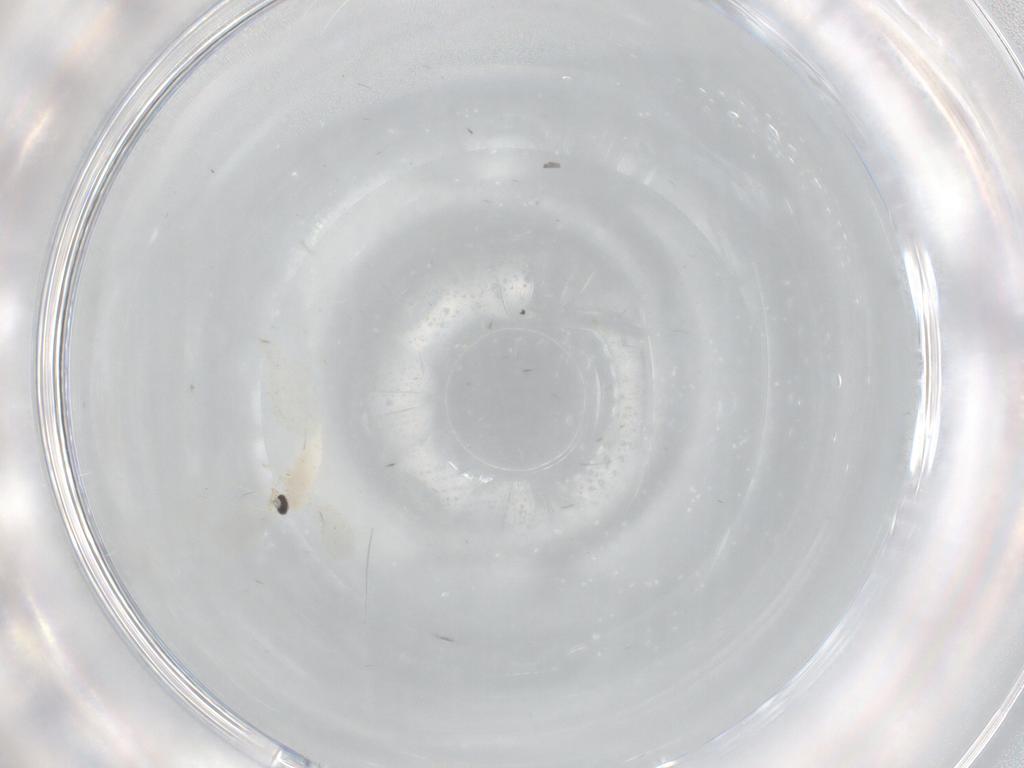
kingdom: Animalia
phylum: Arthropoda
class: Insecta
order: Diptera
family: Cecidomyiidae
